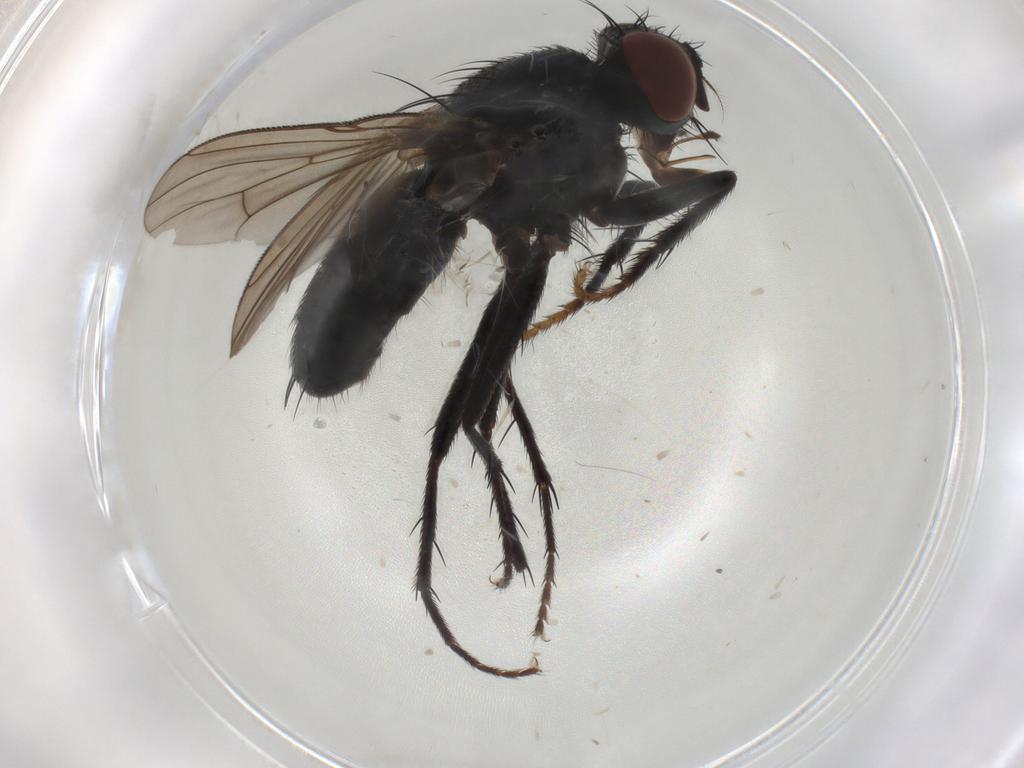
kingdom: Animalia
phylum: Arthropoda
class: Insecta
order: Diptera
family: Muscidae
